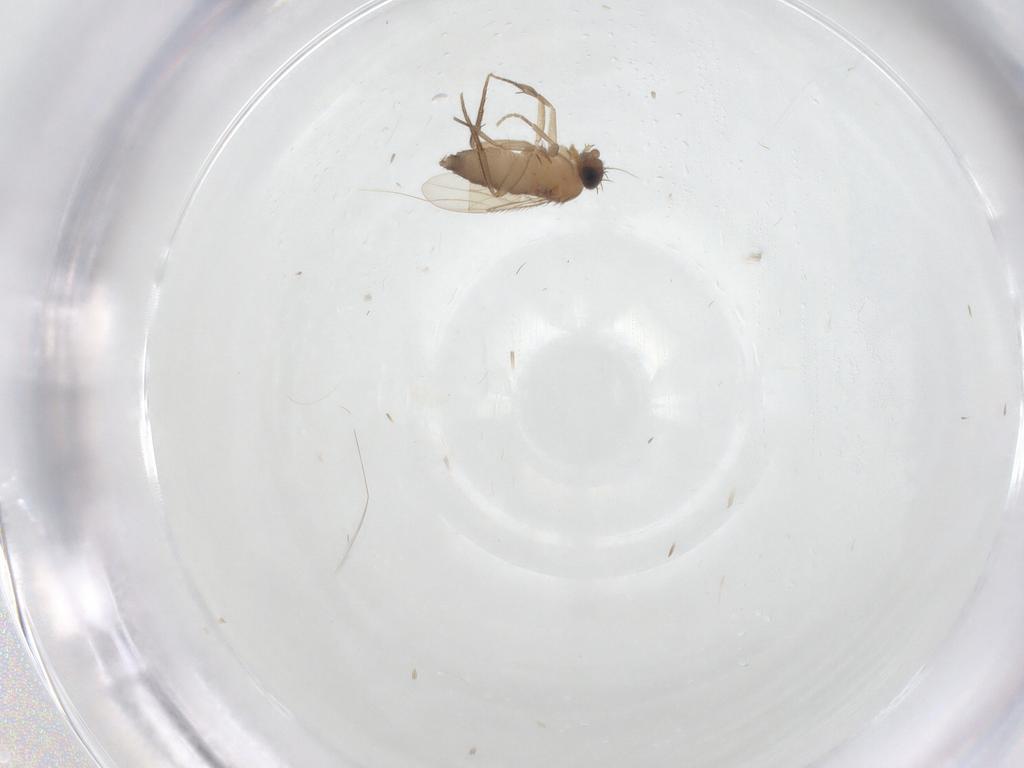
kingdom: Animalia
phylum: Arthropoda
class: Insecta
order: Diptera
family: Phoridae
